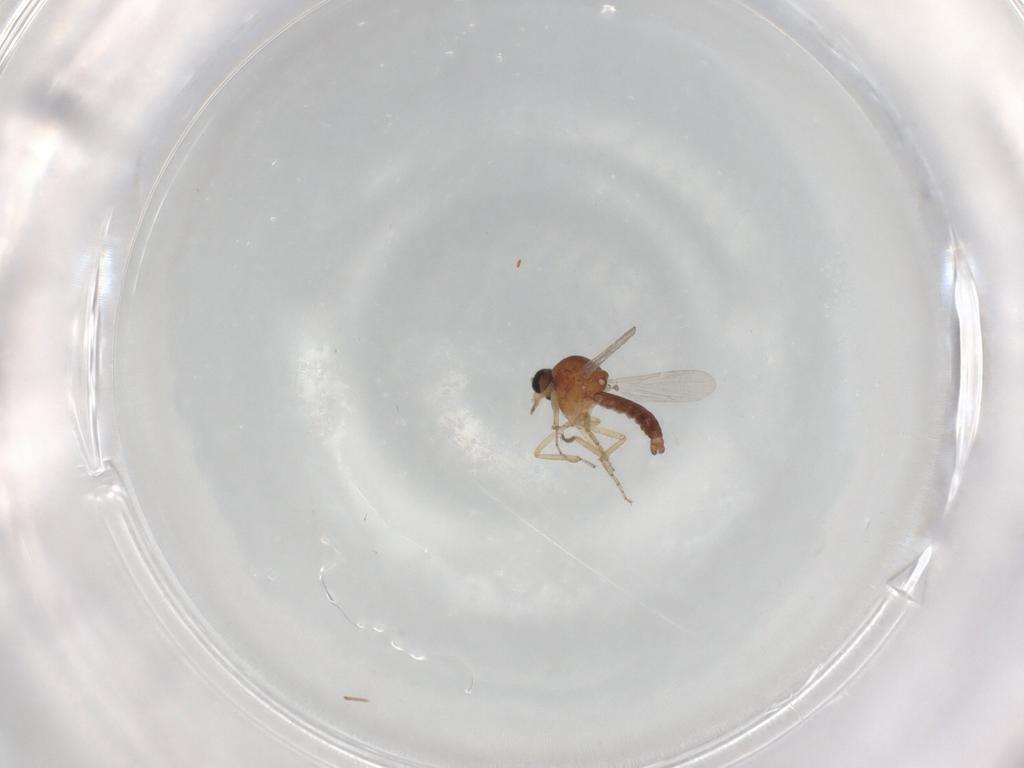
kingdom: Animalia
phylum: Arthropoda
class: Insecta
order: Diptera
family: Ceratopogonidae
